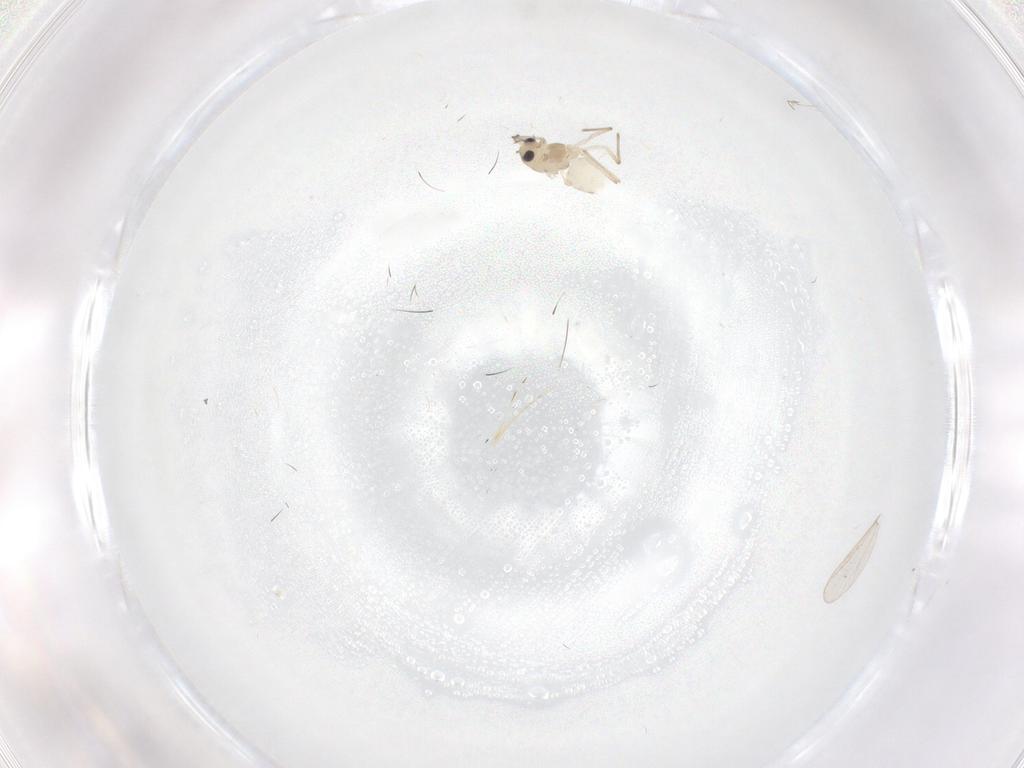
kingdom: Animalia
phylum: Arthropoda
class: Insecta
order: Diptera
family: Chironomidae
